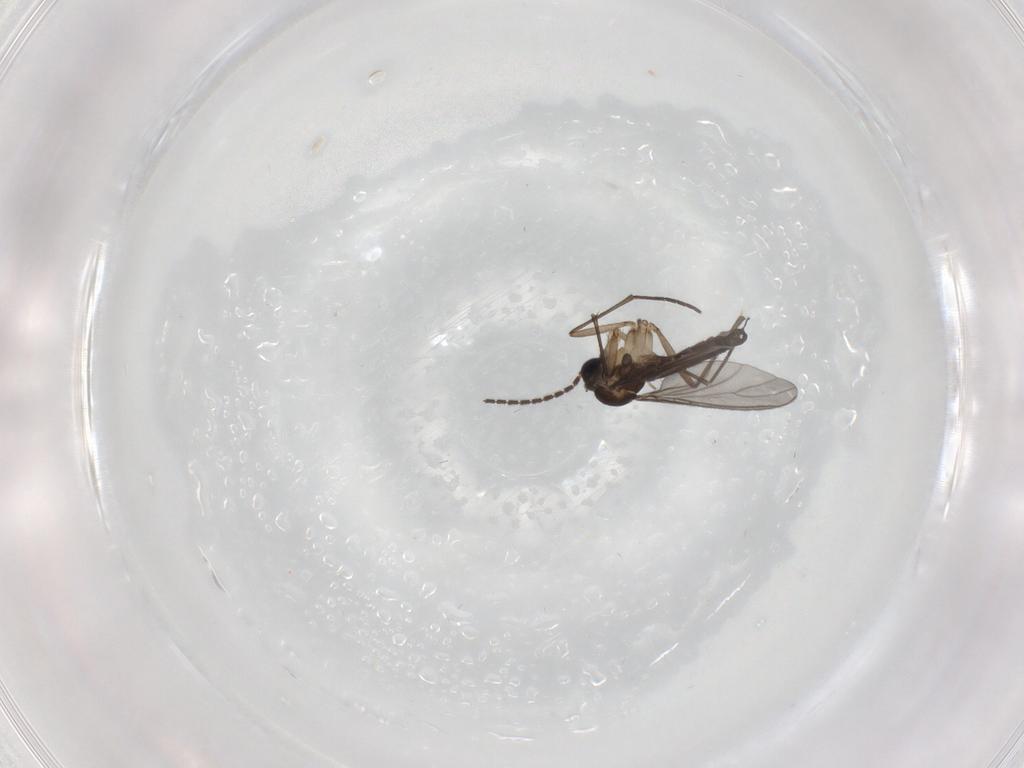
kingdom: Animalia
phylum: Arthropoda
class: Insecta
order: Diptera
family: Sciaridae
